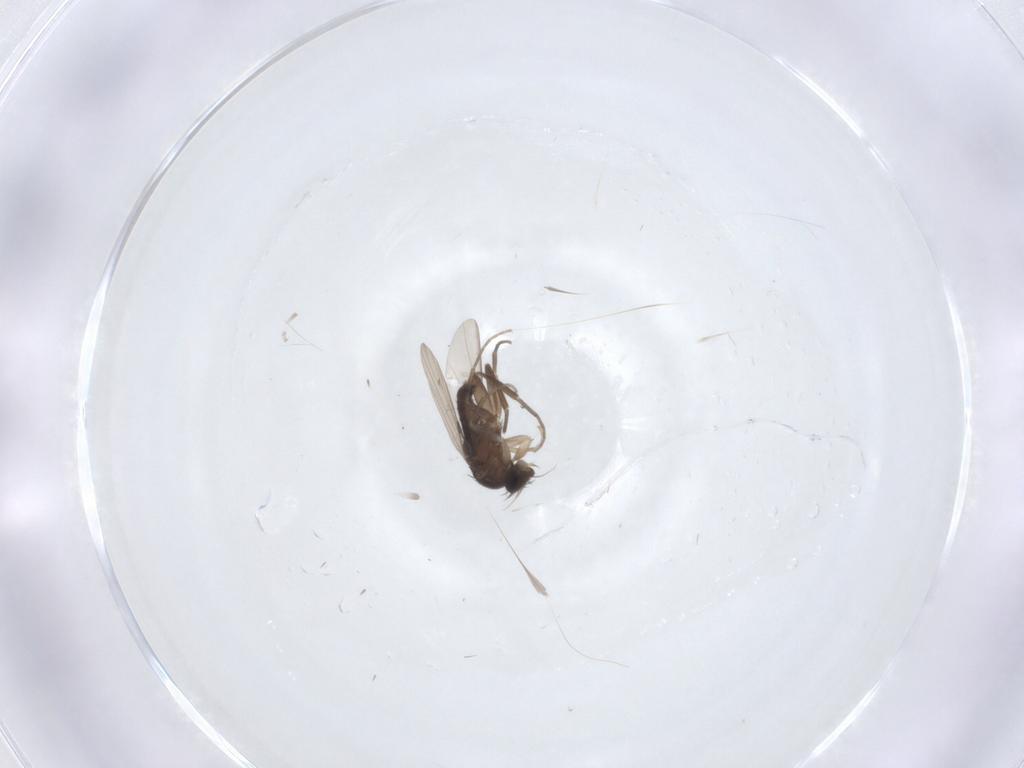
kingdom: Animalia
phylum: Arthropoda
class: Insecta
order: Diptera
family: Phoridae
